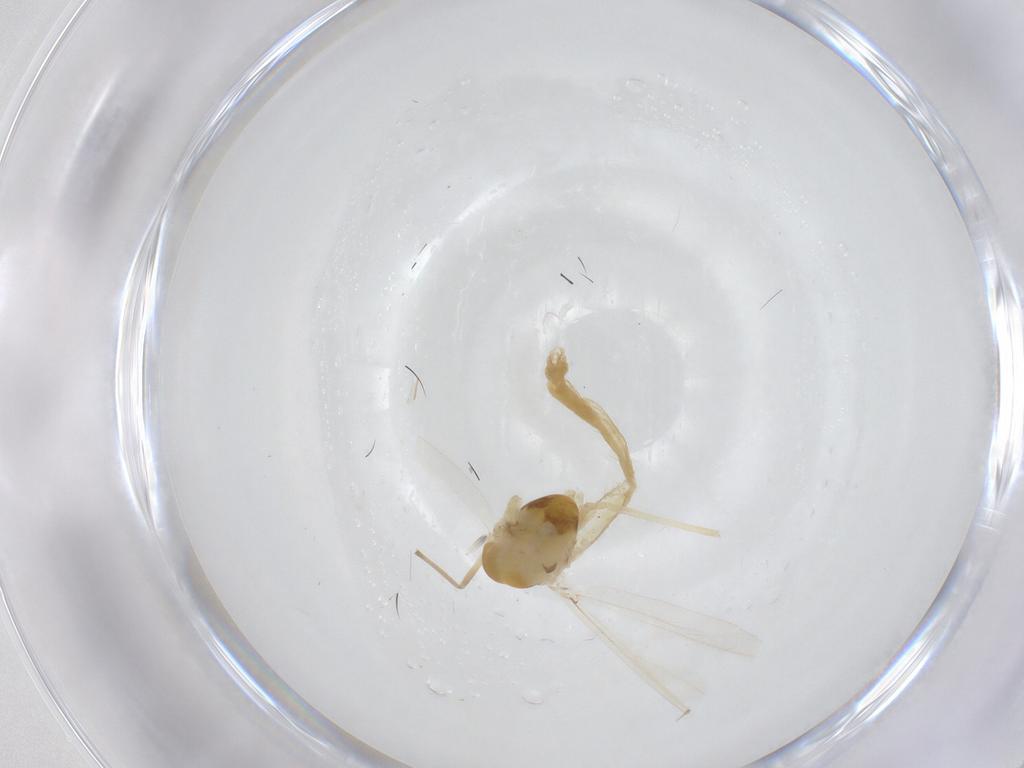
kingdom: Animalia
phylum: Arthropoda
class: Insecta
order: Diptera
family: Chironomidae
